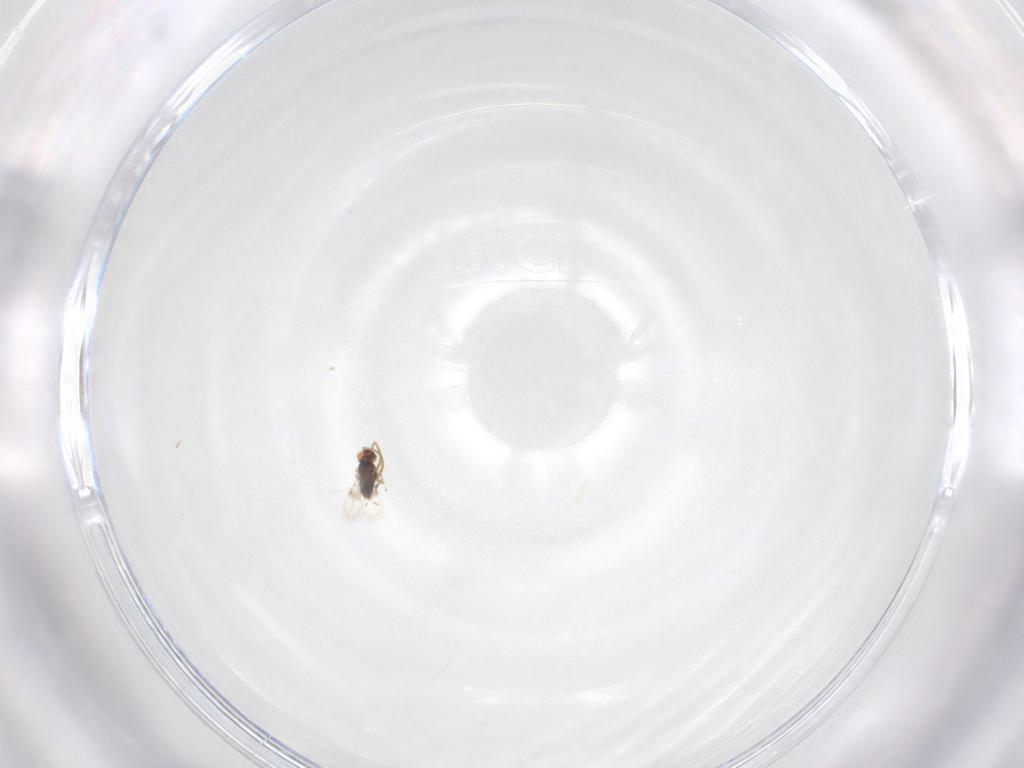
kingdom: Animalia
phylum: Arthropoda
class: Insecta
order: Hymenoptera
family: Azotidae
